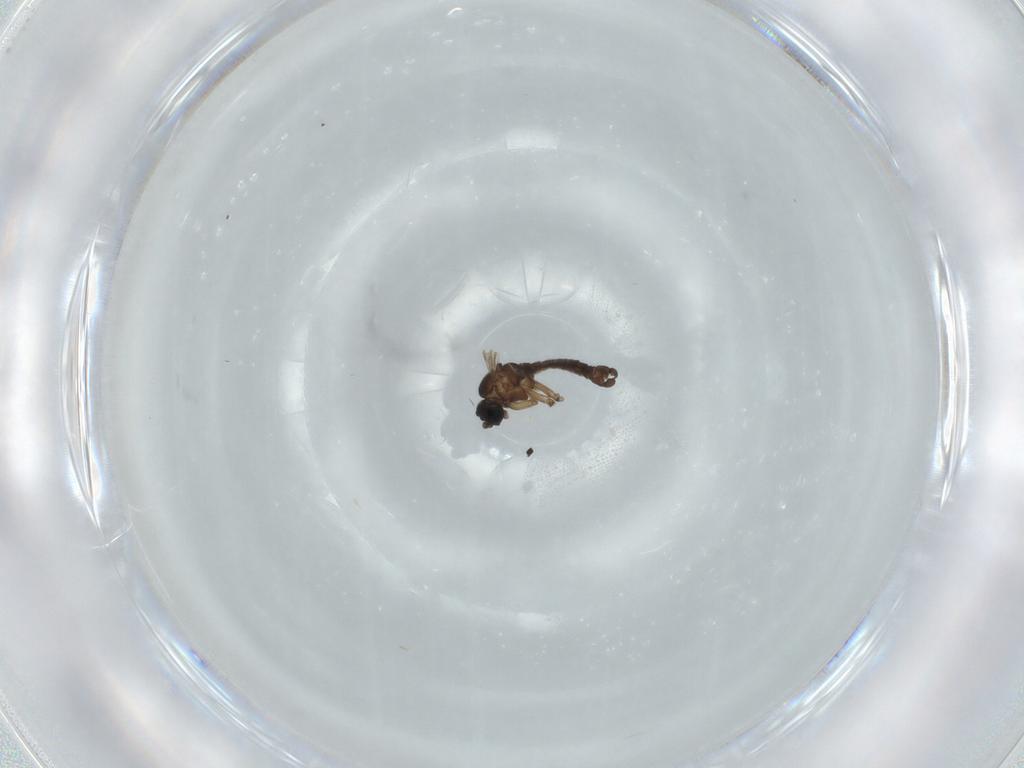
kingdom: Animalia
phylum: Arthropoda
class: Insecta
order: Diptera
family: Sciaridae
